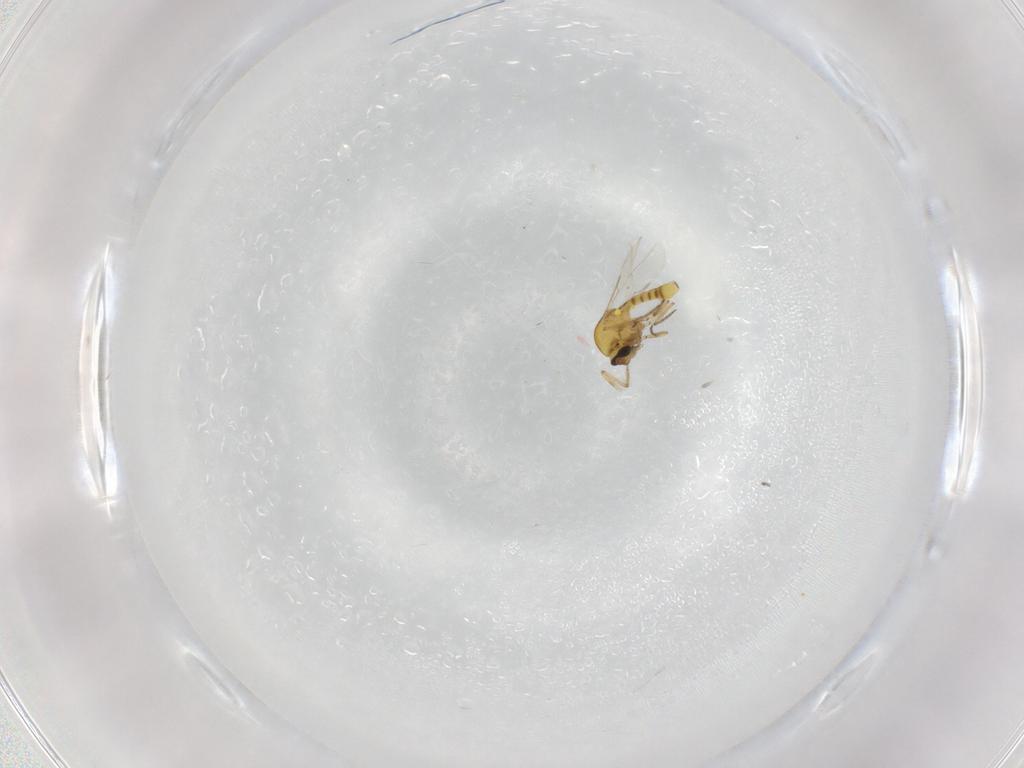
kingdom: Animalia
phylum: Arthropoda
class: Insecta
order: Diptera
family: Ceratopogonidae
